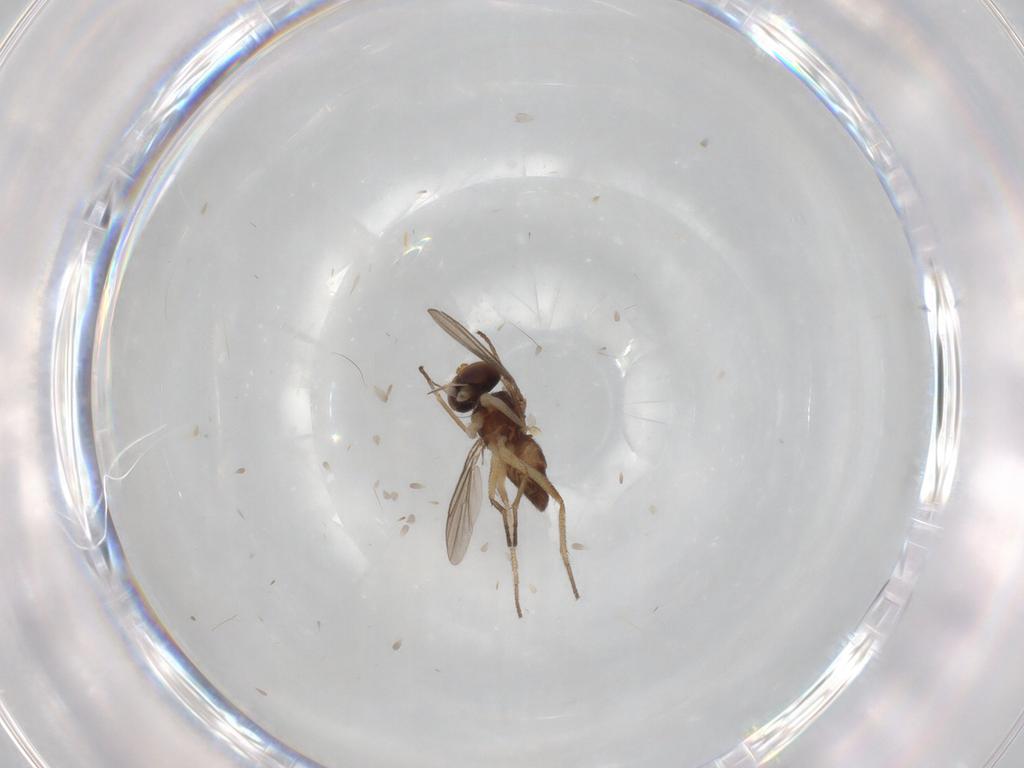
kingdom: Animalia
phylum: Arthropoda
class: Insecta
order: Diptera
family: Dolichopodidae
